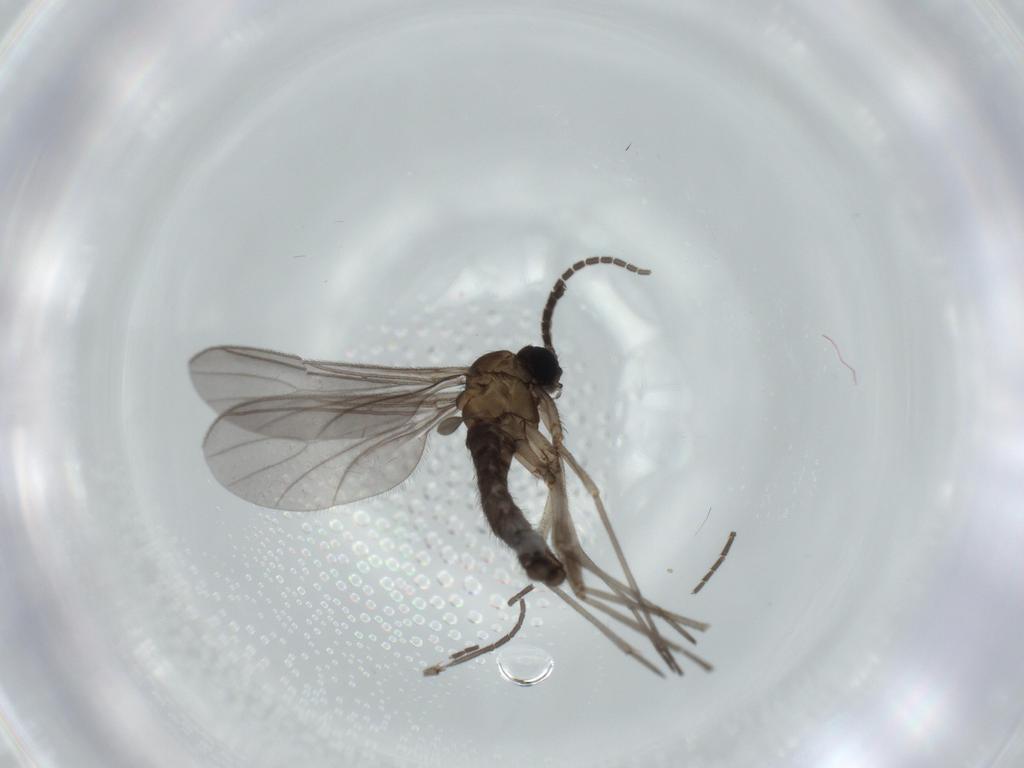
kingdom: Animalia
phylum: Arthropoda
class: Insecta
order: Diptera
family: Sciaridae
